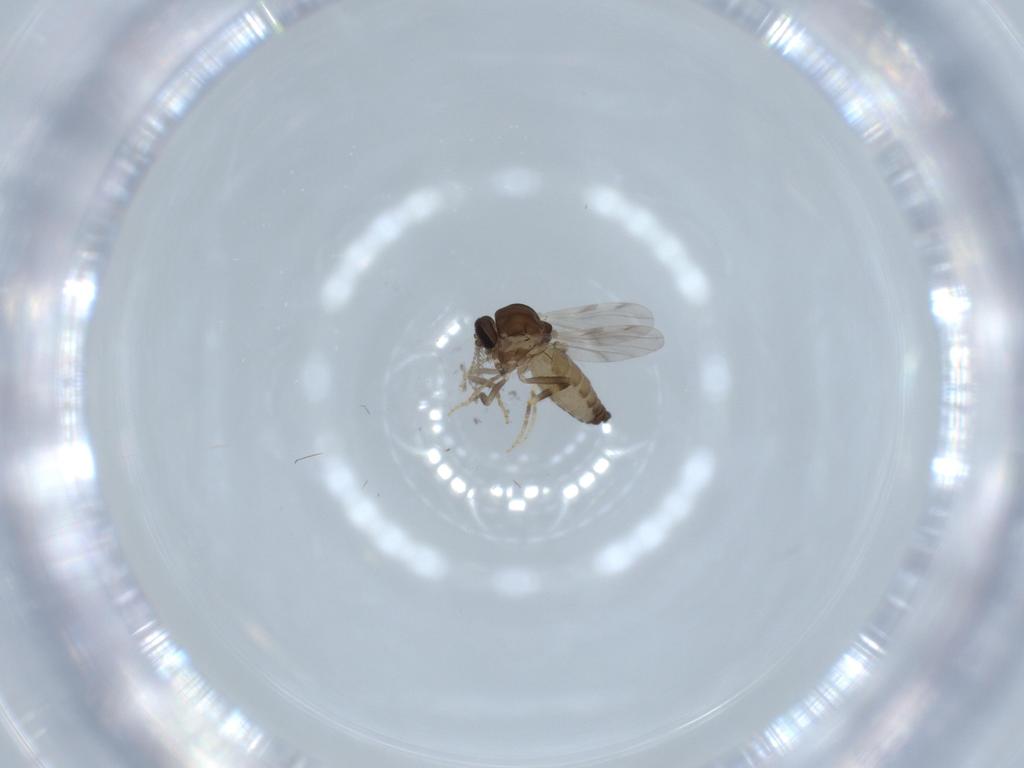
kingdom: Animalia
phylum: Arthropoda
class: Insecta
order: Diptera
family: Ceratopogonidae
